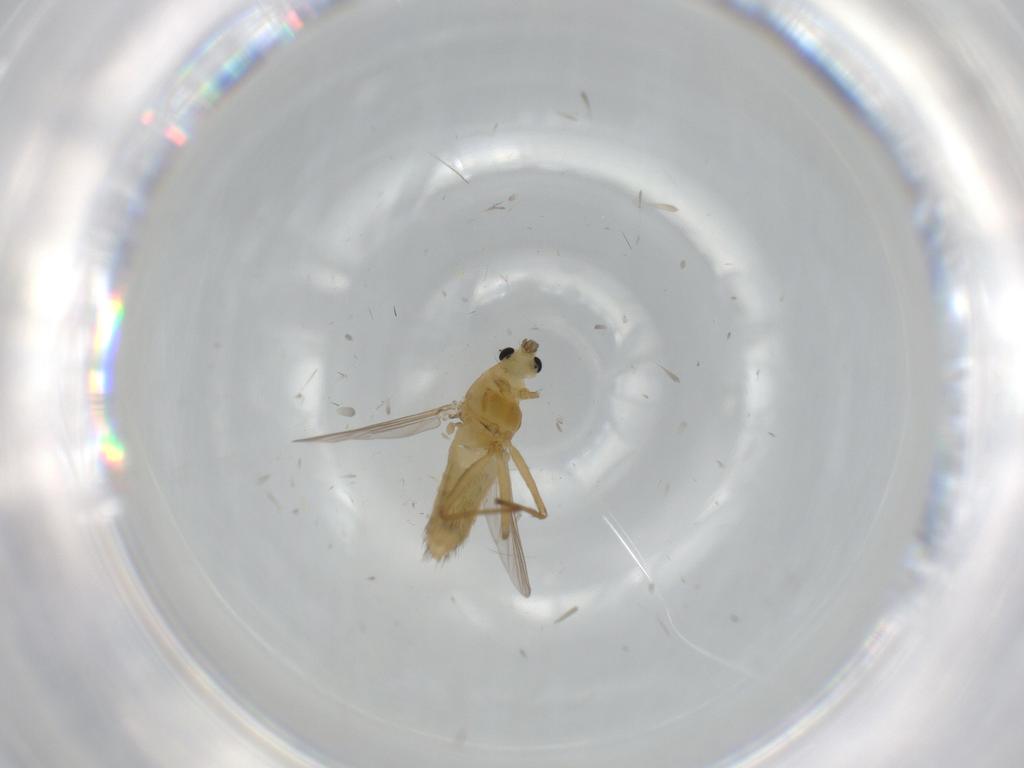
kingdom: Animalia
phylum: Arthropoda
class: Insecta
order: Diptera
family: Chironomidae
